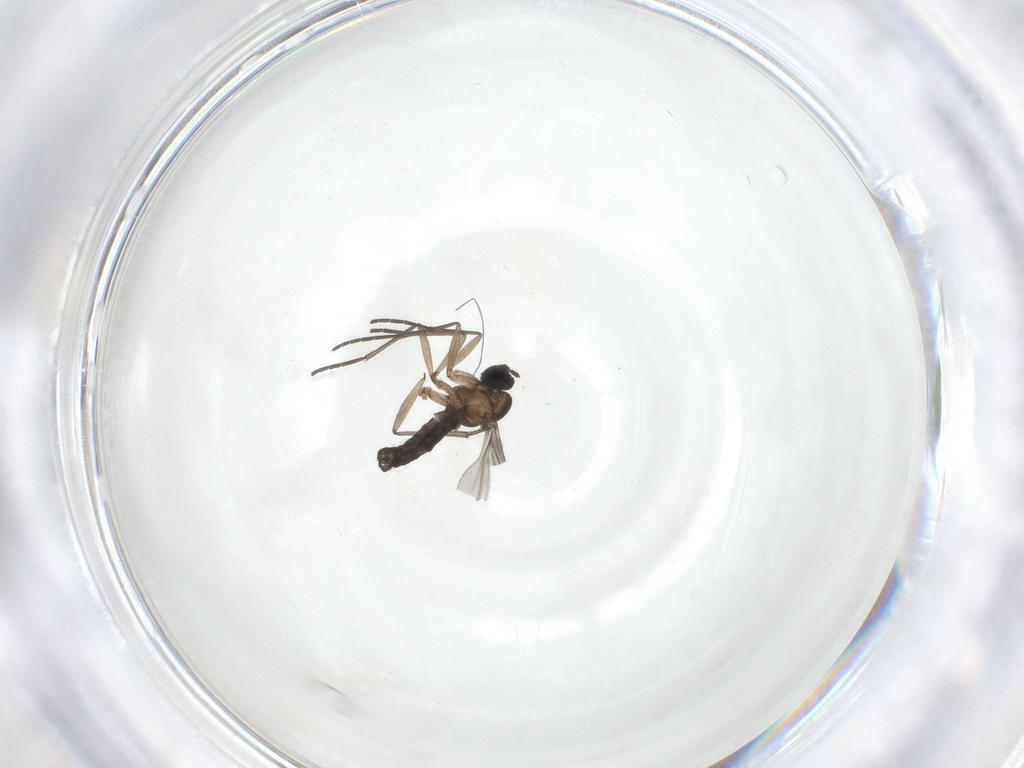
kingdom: Animalia
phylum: Arthropoda
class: Insecta
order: Diptera
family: Sciaridae
